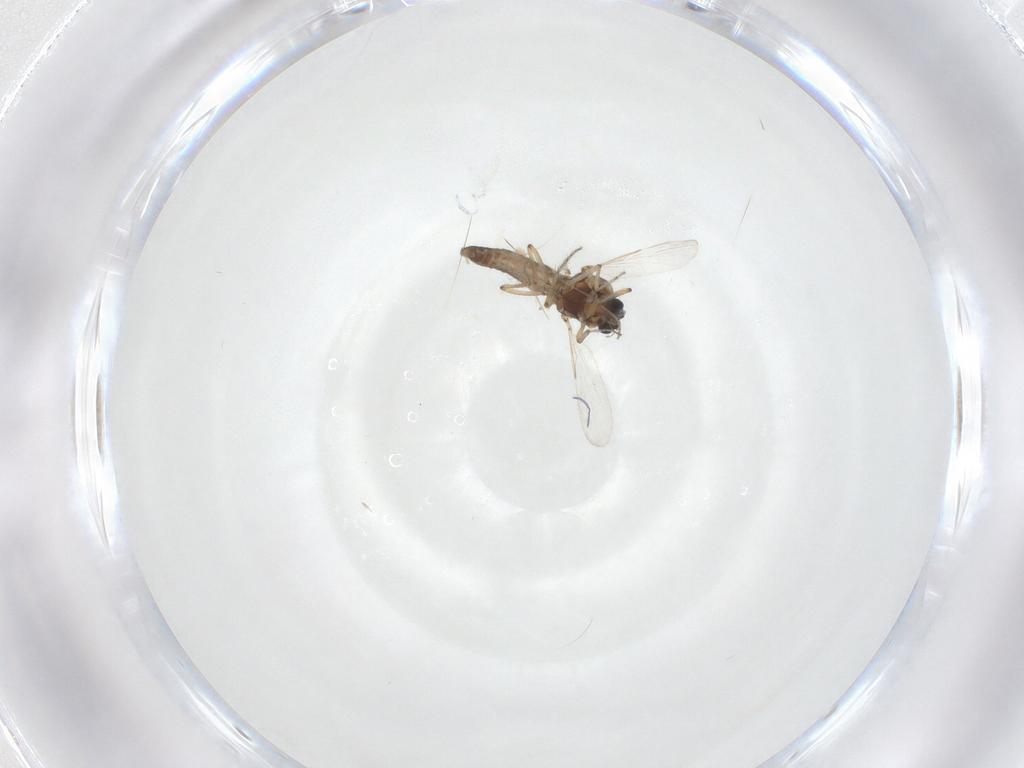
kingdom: Animalia
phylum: Arthropoda
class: Insecta
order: Diptera
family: Ceratopogonidae
